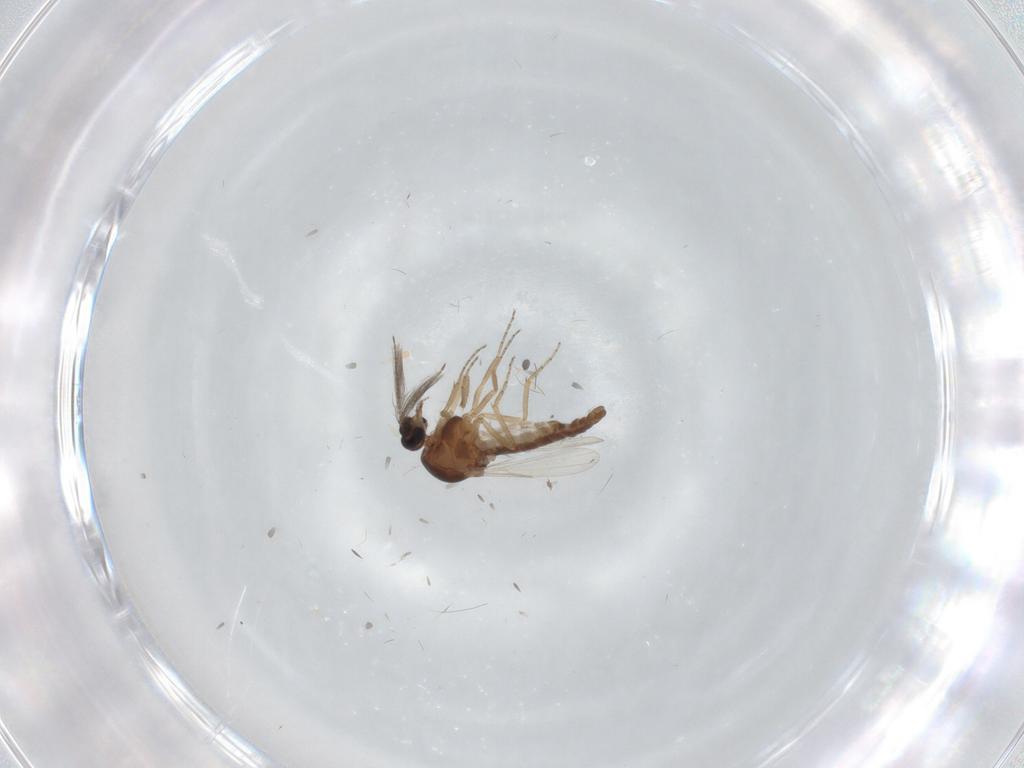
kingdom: Animalia
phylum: Arthropoda
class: Insecta
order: Diptera
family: Ceratopogonidae
